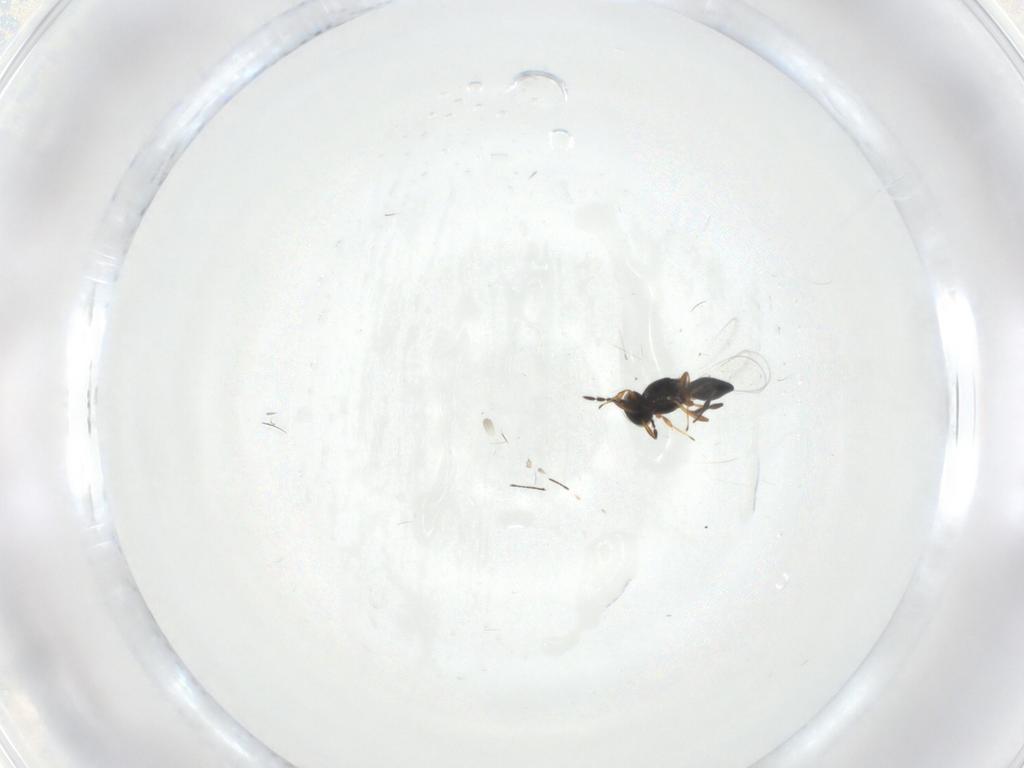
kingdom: Animalia
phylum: Arthropoda
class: Insecta
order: Hymenoptera
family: Platygastridae
